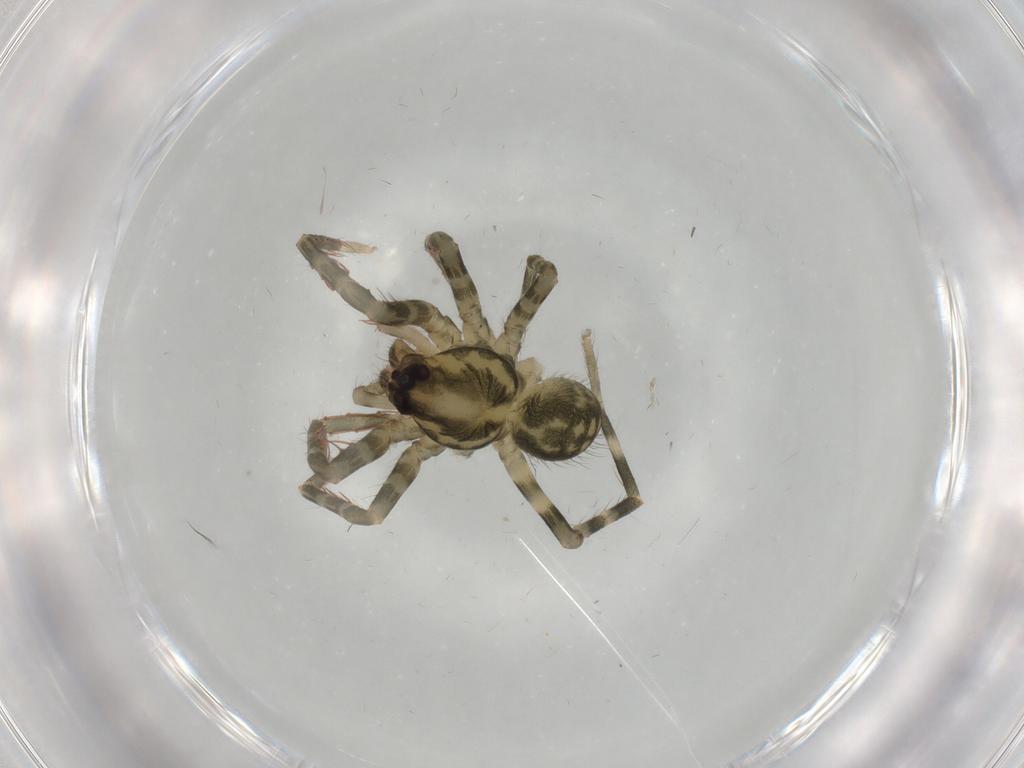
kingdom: Animalia
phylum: Arthropoda
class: Arachnida
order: Araneae
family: Ctenidae
